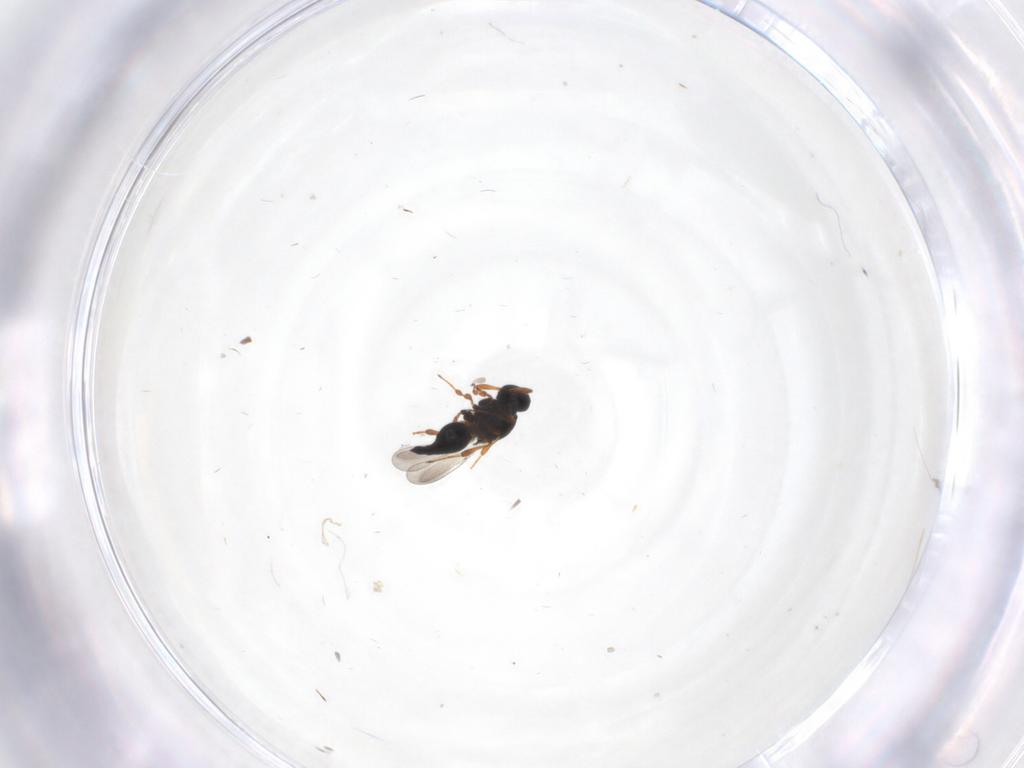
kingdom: Animalia
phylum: Arthropoda
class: Insecta
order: Hymenoptera
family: Platygastridae
